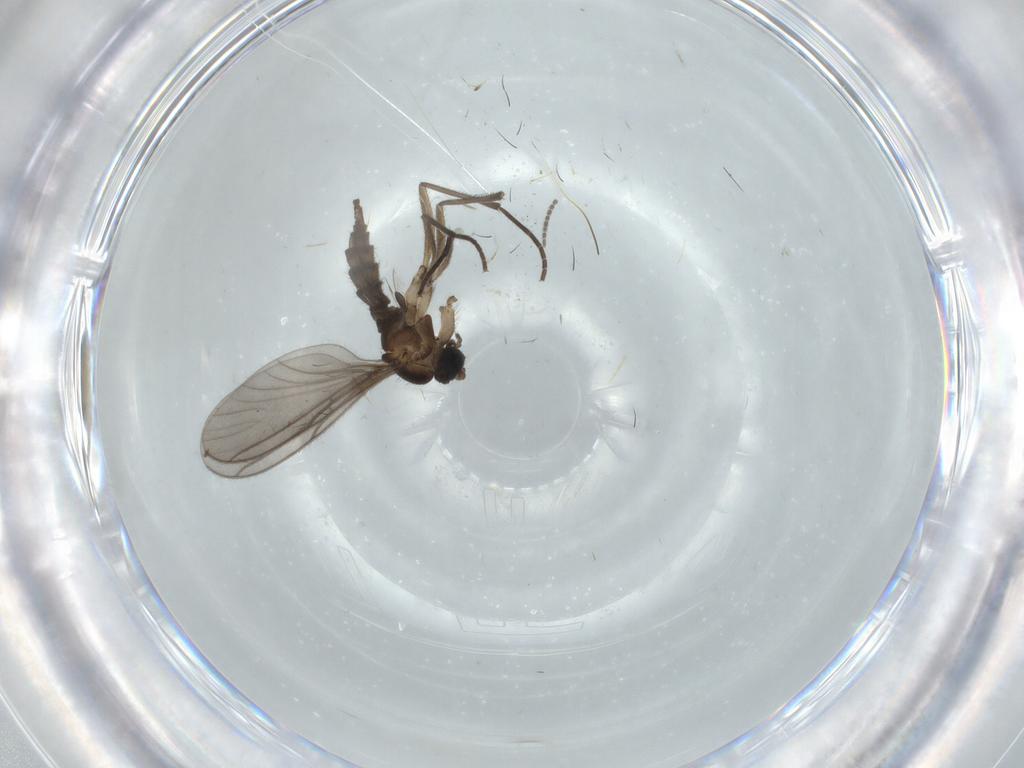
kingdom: Animalia
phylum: Arthropoda
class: Insecta
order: Diptera
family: Sciaridae
